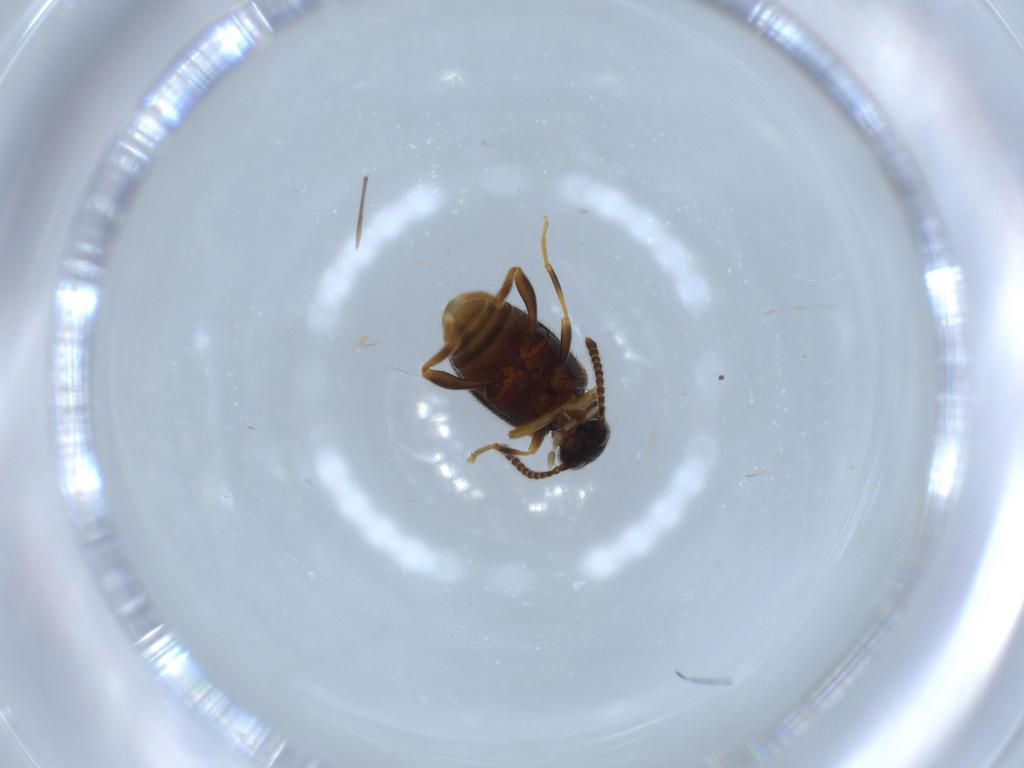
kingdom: Animalia
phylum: Arthropoda
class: Insecta
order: Coleoptera
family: Aderidae
